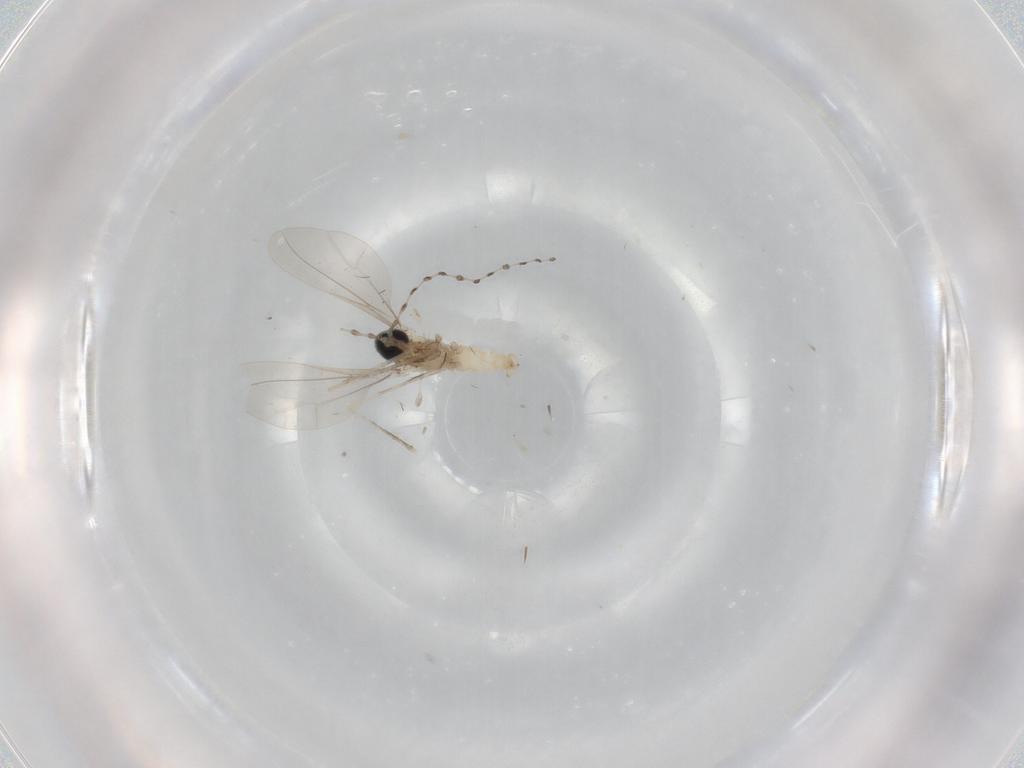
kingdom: Animalia
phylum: Arthropoda
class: Insecta
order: Diptera
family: Cecidomyiidae
